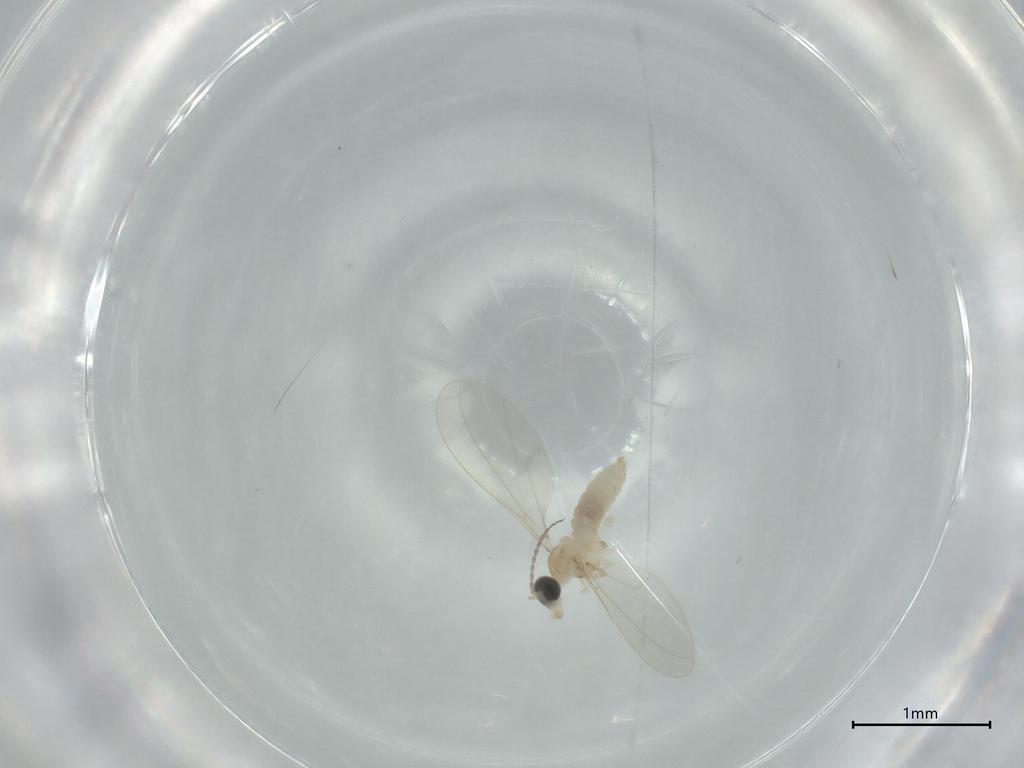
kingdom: Animalia
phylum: Arthropoda
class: Insecta
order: Diptera
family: Cecidomyiidae
